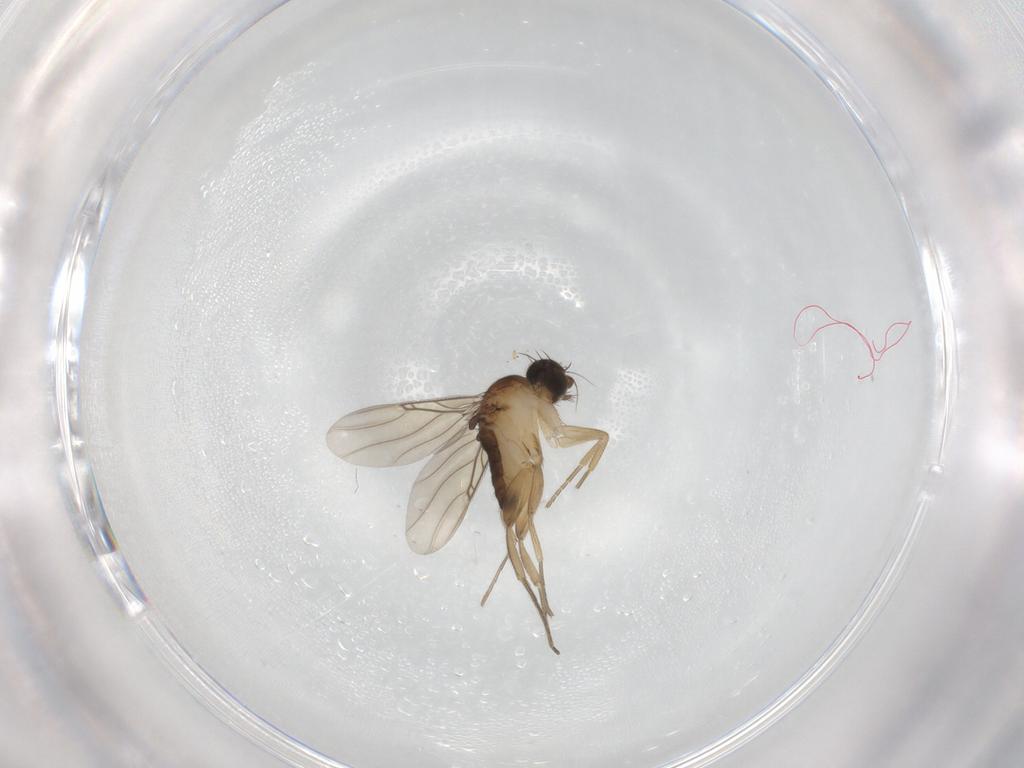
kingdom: Animalia
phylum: Arthropoda
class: Insecta
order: Diptera
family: Phoridae
